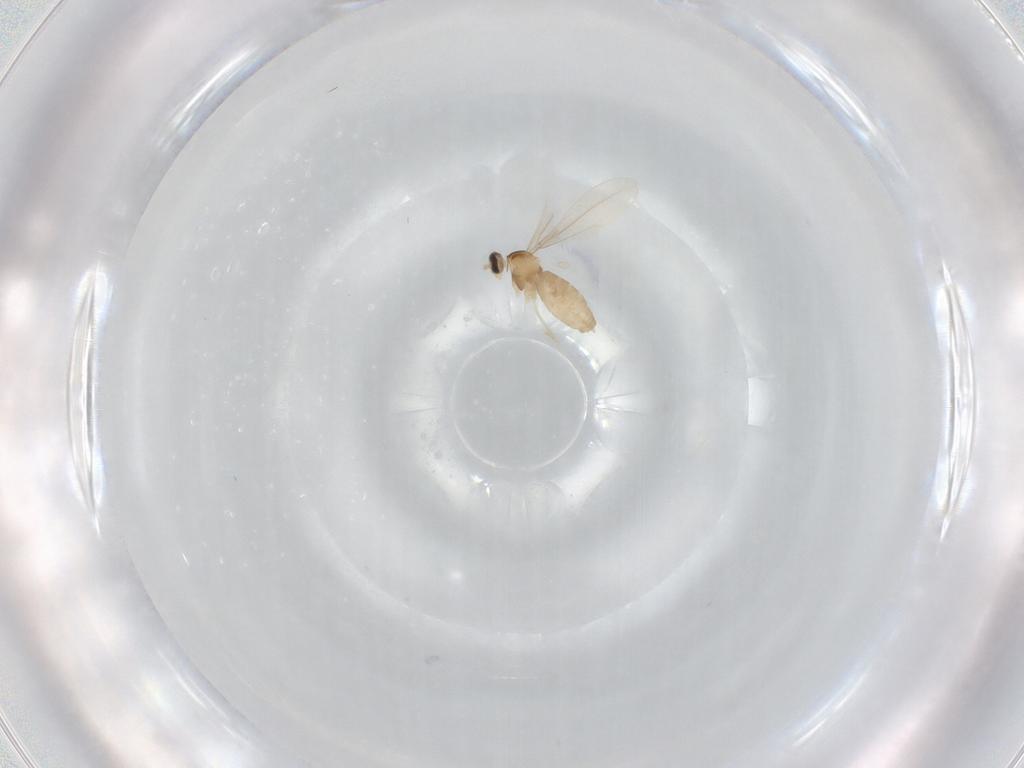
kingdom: Animalia
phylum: Arthropoda
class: Insecta
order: Diptera
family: Cecidomyiidae
